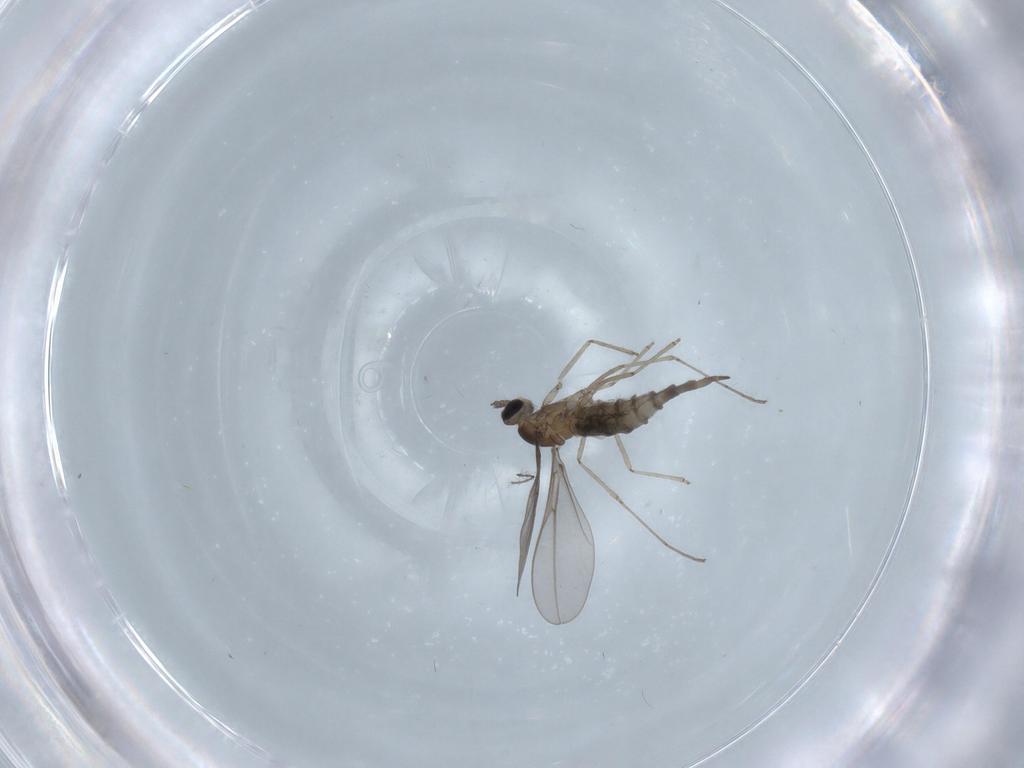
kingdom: Animalia
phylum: Arthropoda
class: Insecta
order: Diptera
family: Cecidomyiidae
